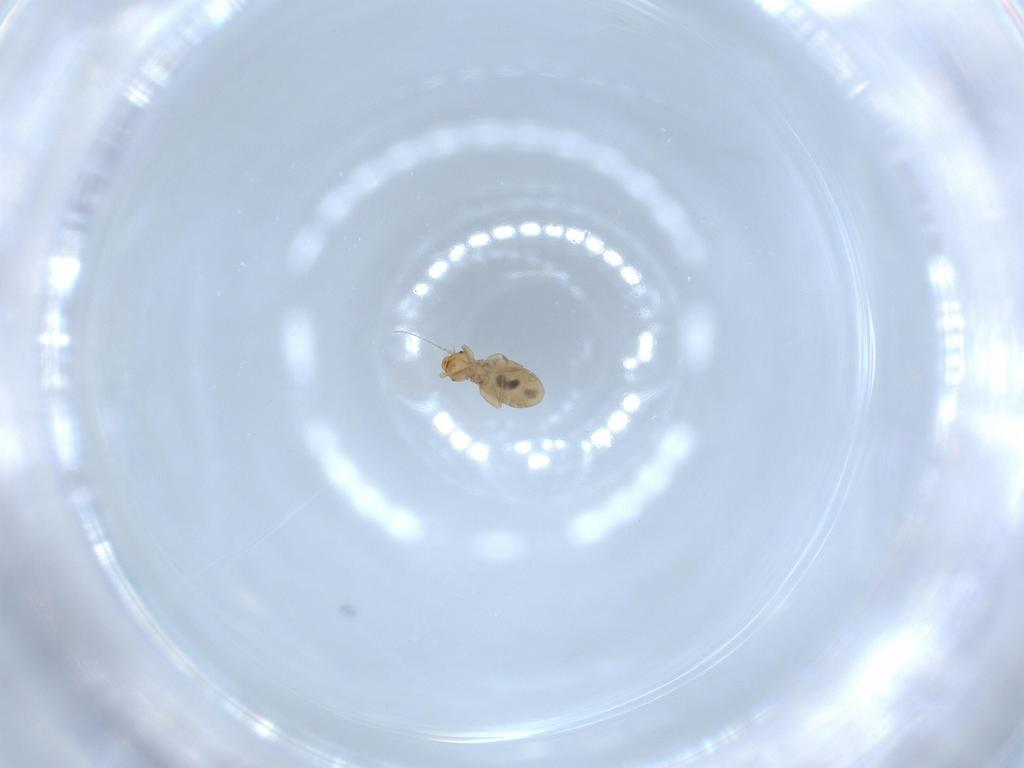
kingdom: Animalia
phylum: Arthropoda
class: Insecta
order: Psocodea
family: Liposcelididae
